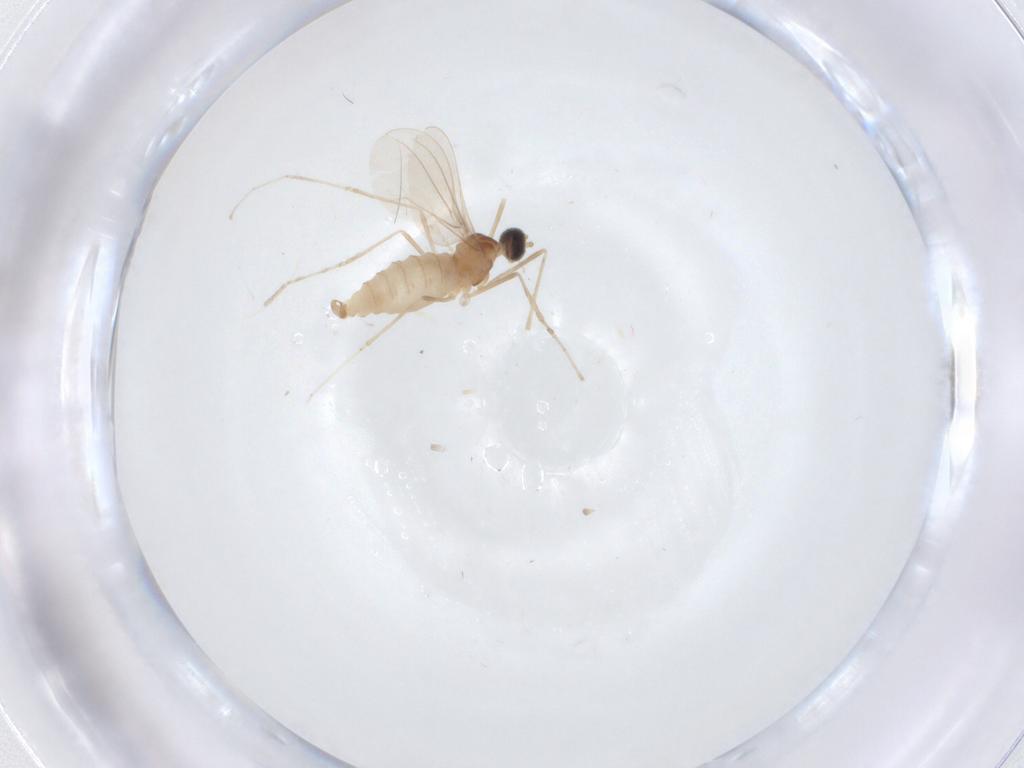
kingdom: Animalia
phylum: Arthropoda
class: Insecta
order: Diptera
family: Cecidomyiidae
